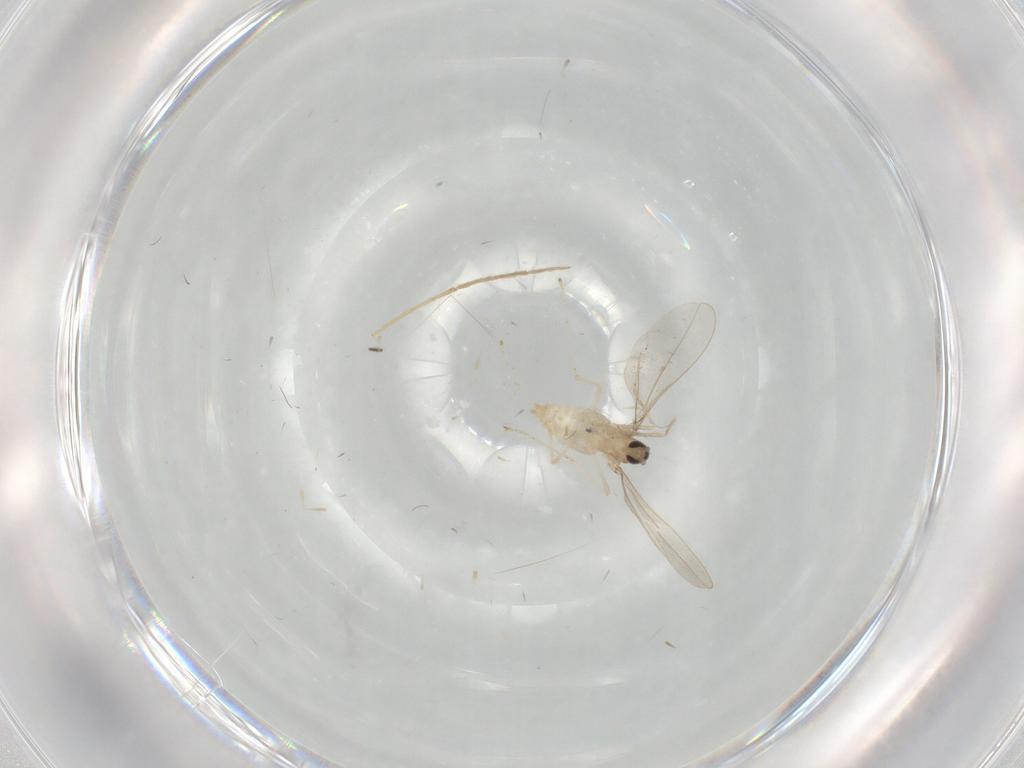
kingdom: Animalia
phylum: Arthropoda
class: Insecta
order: Diptera
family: Cecidomyiidae
